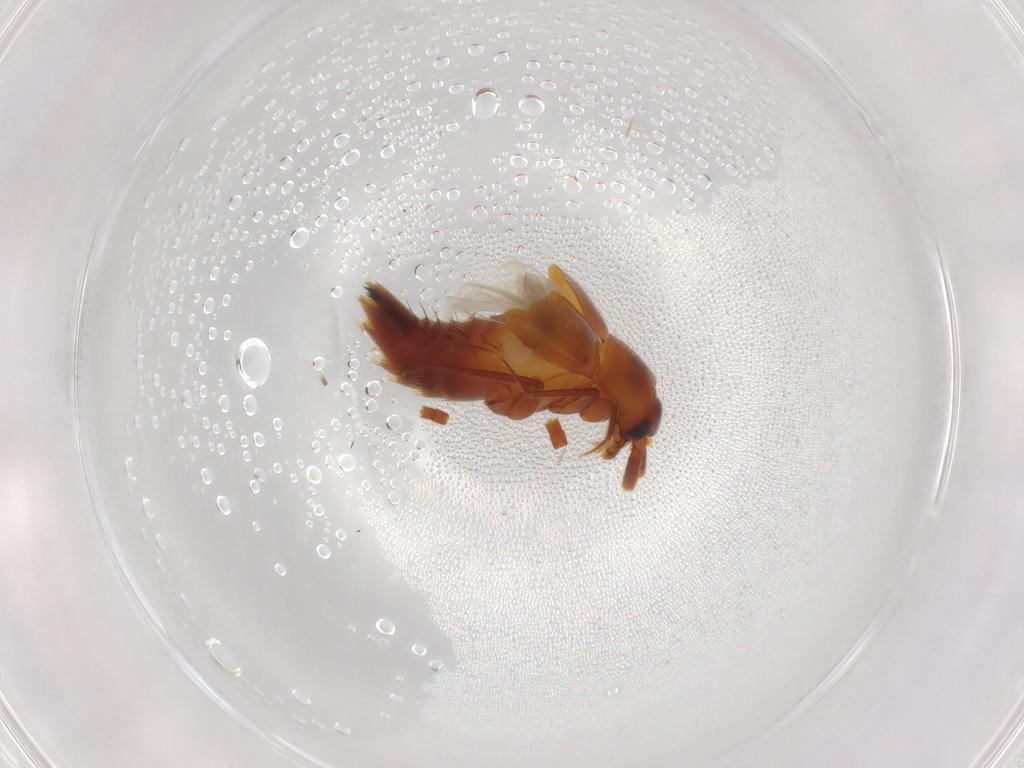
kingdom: Animalia
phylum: Arthropoda
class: Insecta
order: Coleoptera
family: Staphylinidae
